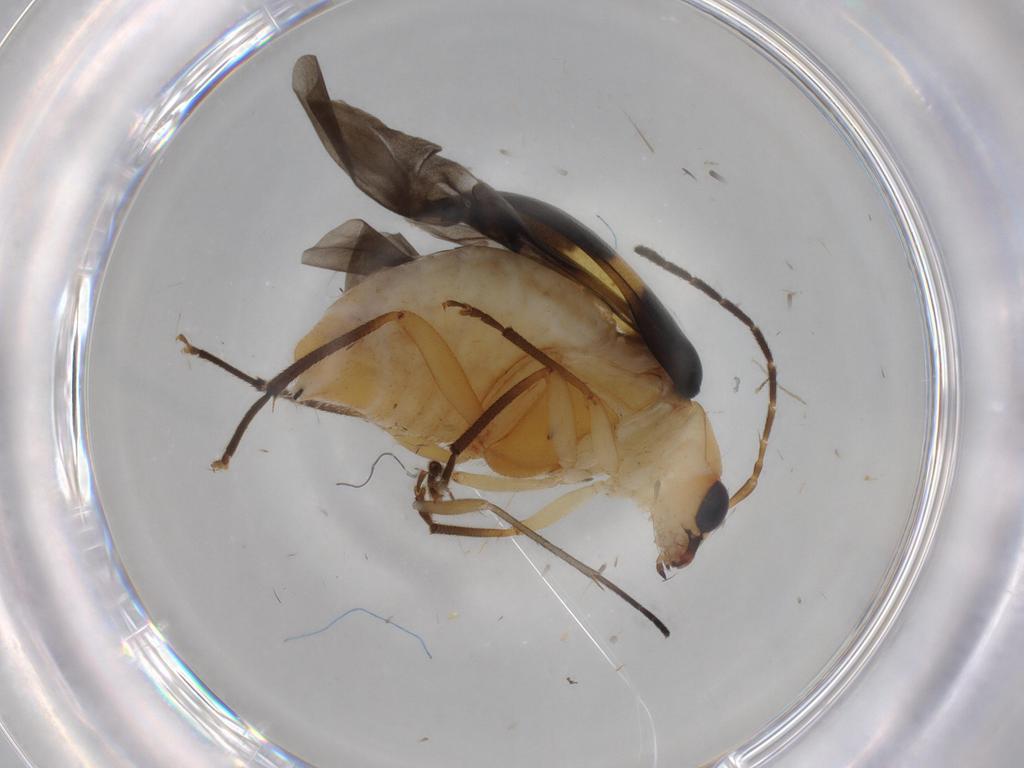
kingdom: Animalia
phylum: Arthropoda
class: Insecta
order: Coleoptera
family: Chrysomelidae
